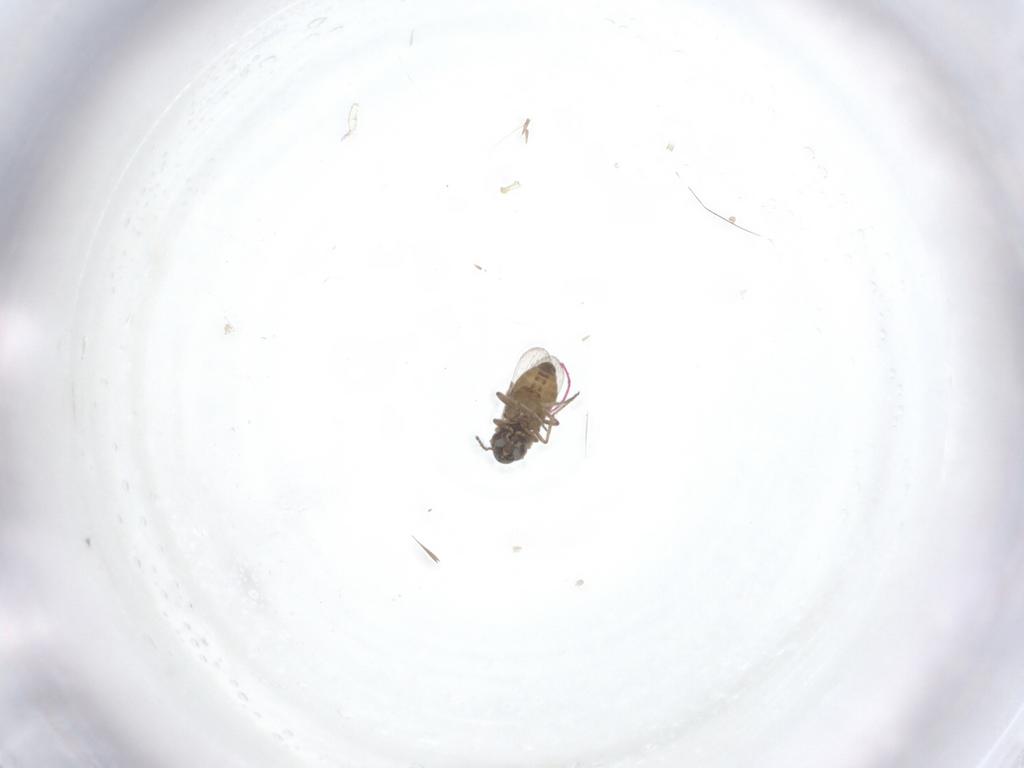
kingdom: Animalia
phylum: Arthropoda
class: Insecta
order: Diptera
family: Ceratopogonidae
